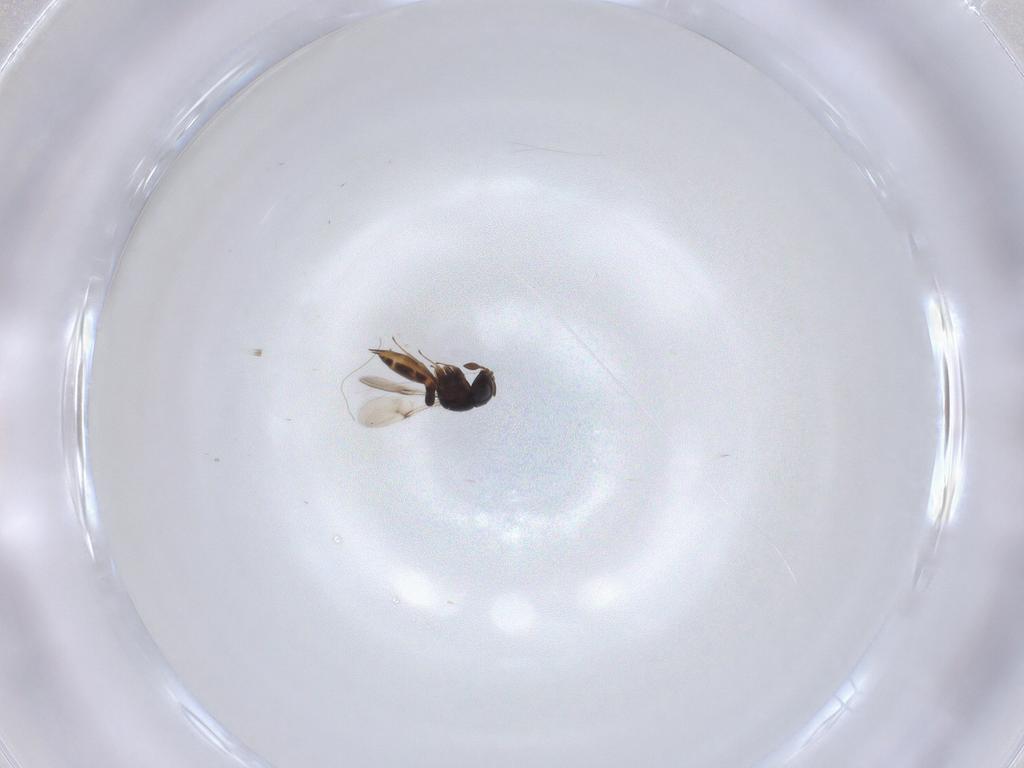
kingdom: Animalia
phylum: Arthropoda
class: Insecta
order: Hymenoptera
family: Scelionidae
